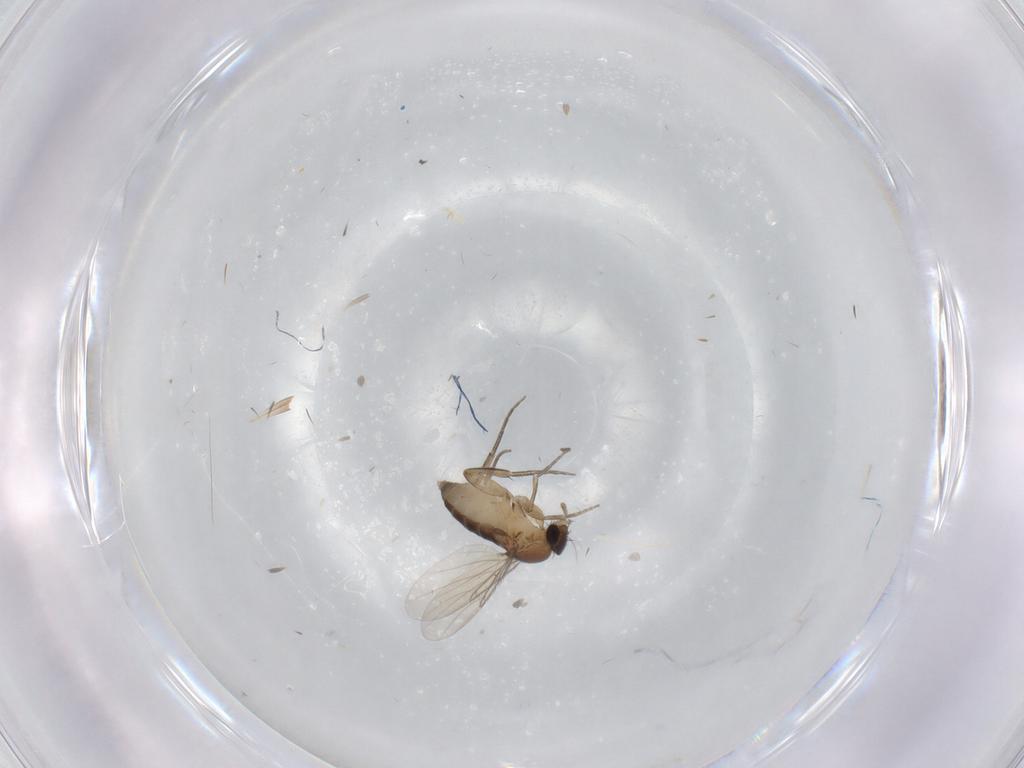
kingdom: Animalia
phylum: Arthropoda
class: Insecta
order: Diptera
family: Phoridae
